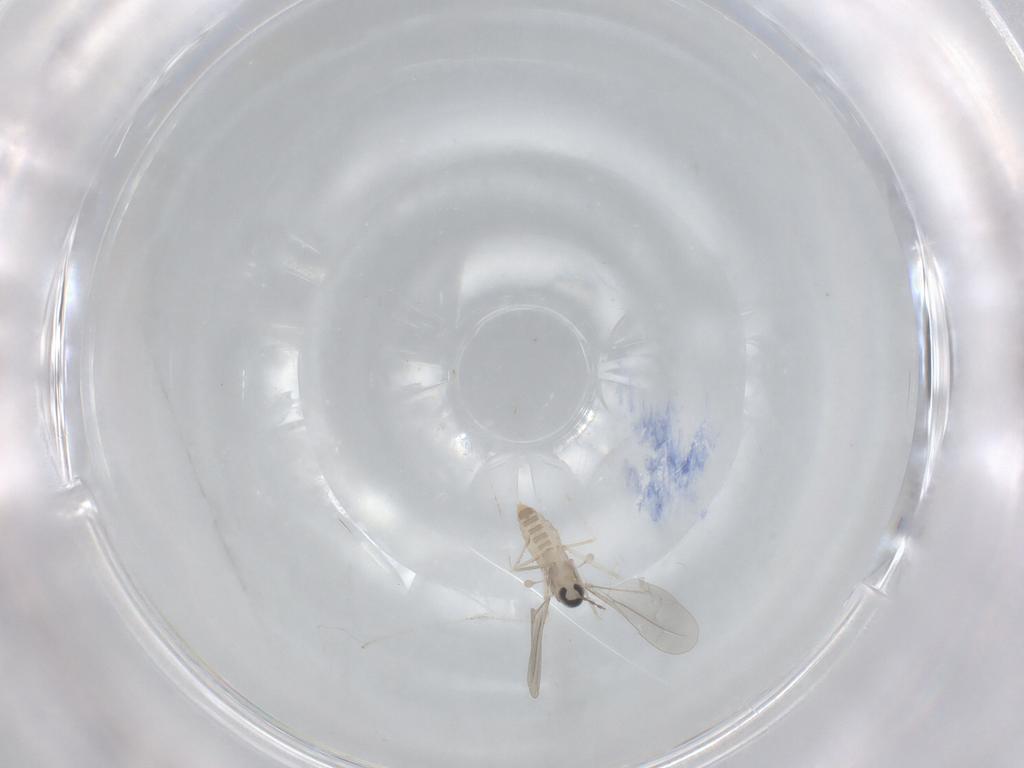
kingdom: Animalia
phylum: Arthropoda
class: Insecta
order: Diptera
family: Cecidomyiidae
